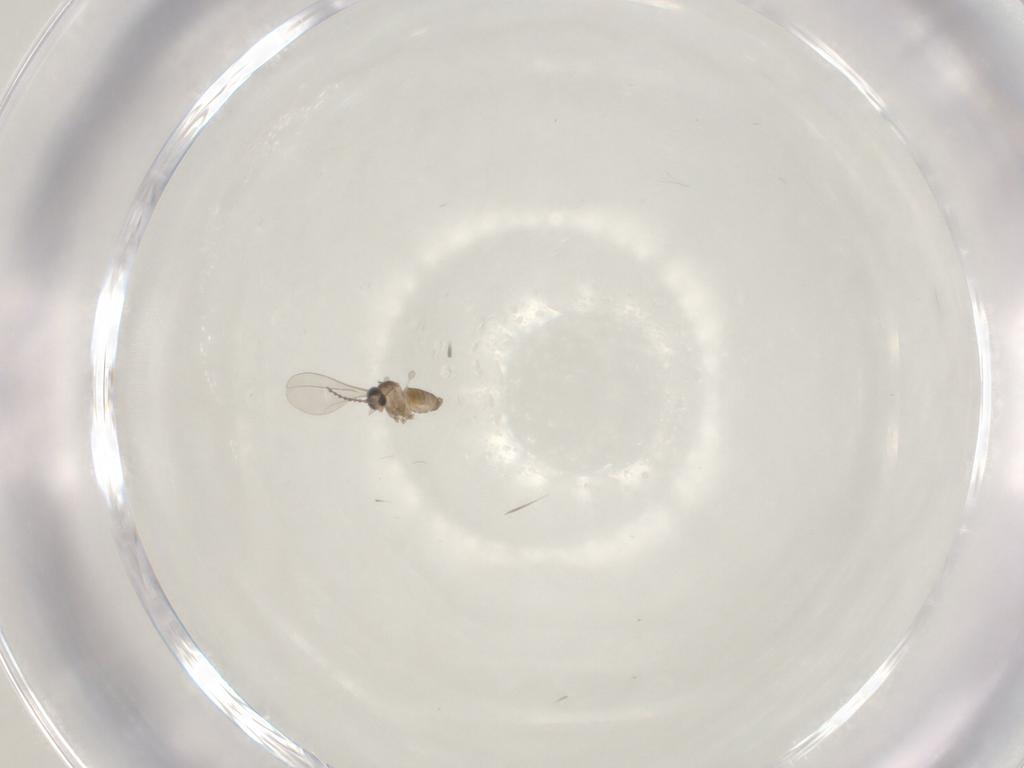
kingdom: Animalia
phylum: Arthropoda
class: Insecta
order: Diptera
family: Cecidomyiidae
